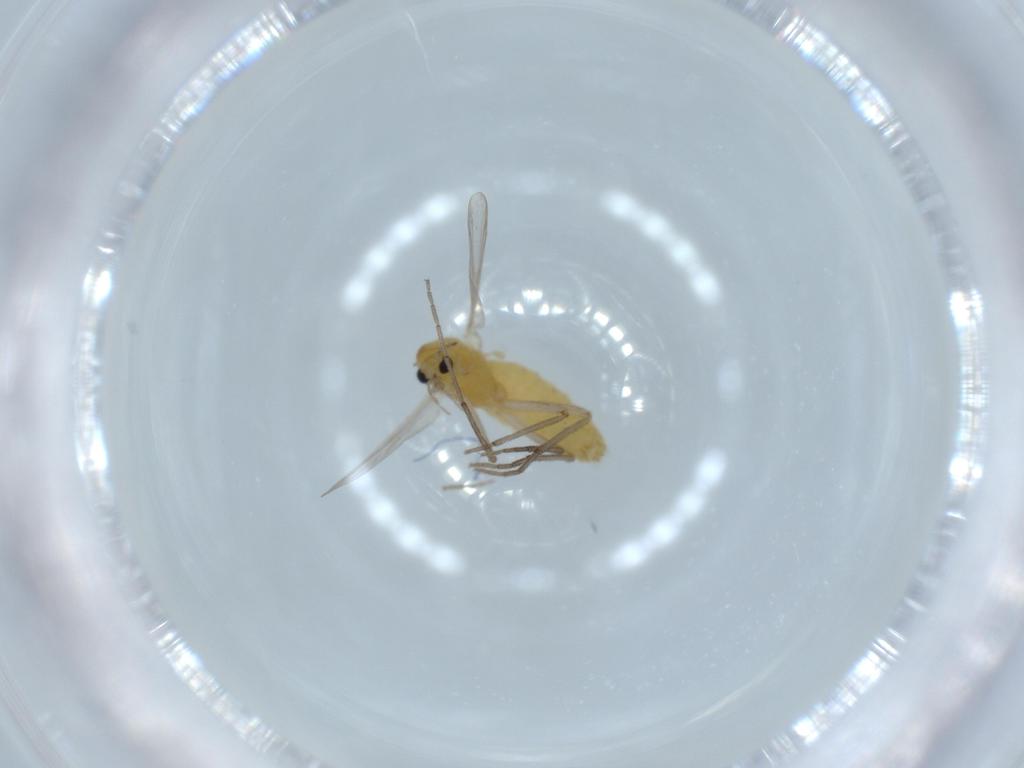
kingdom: Animalia
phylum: Arthropoda
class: Insecta
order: Diptera
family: Chironomidae
